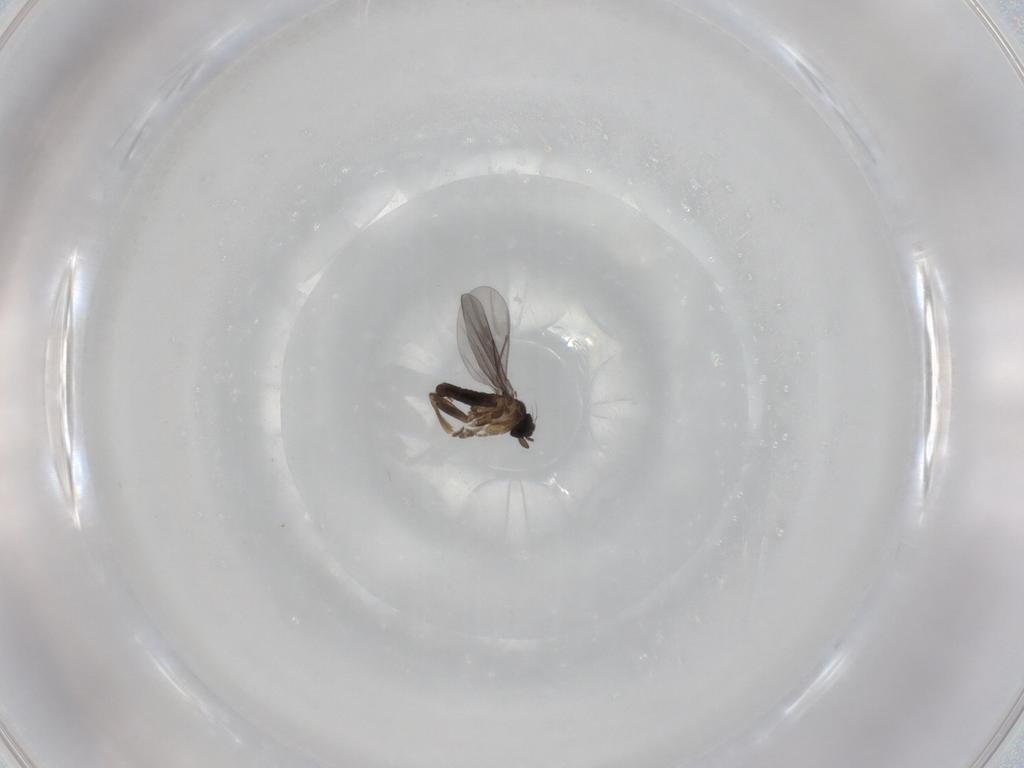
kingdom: Animalia
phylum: Arthropoda
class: Insecta
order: Diptera
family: Chironomidae
